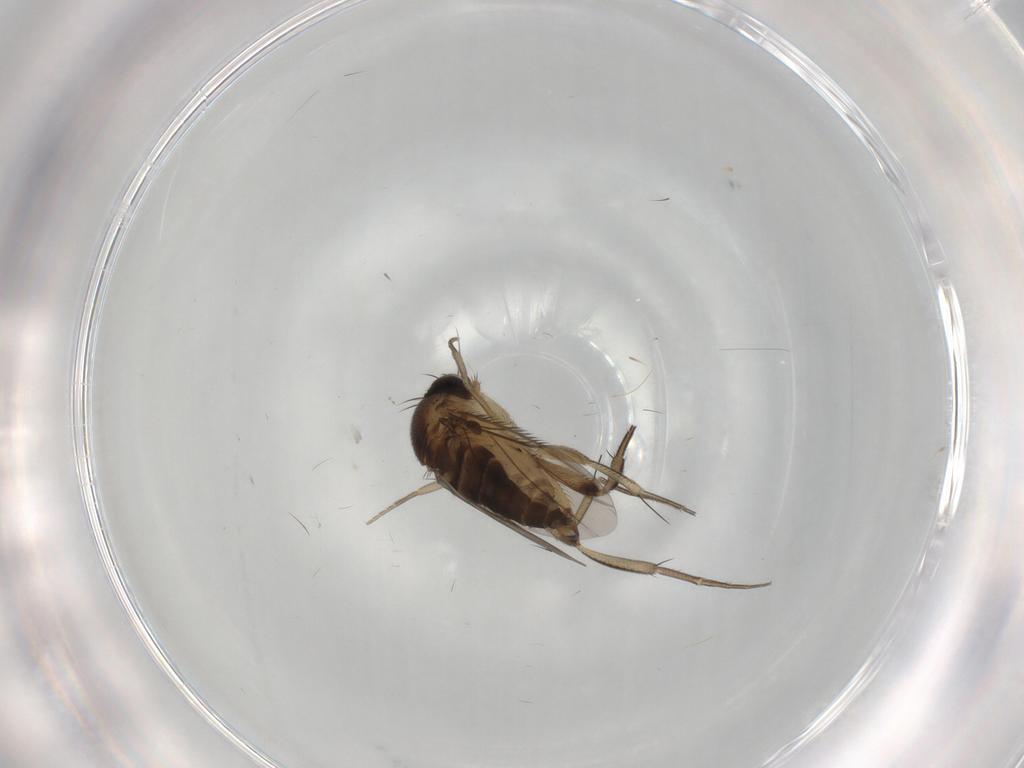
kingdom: Animalia
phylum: Arthropoda
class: Insecta
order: Diptera
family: Phoridae
